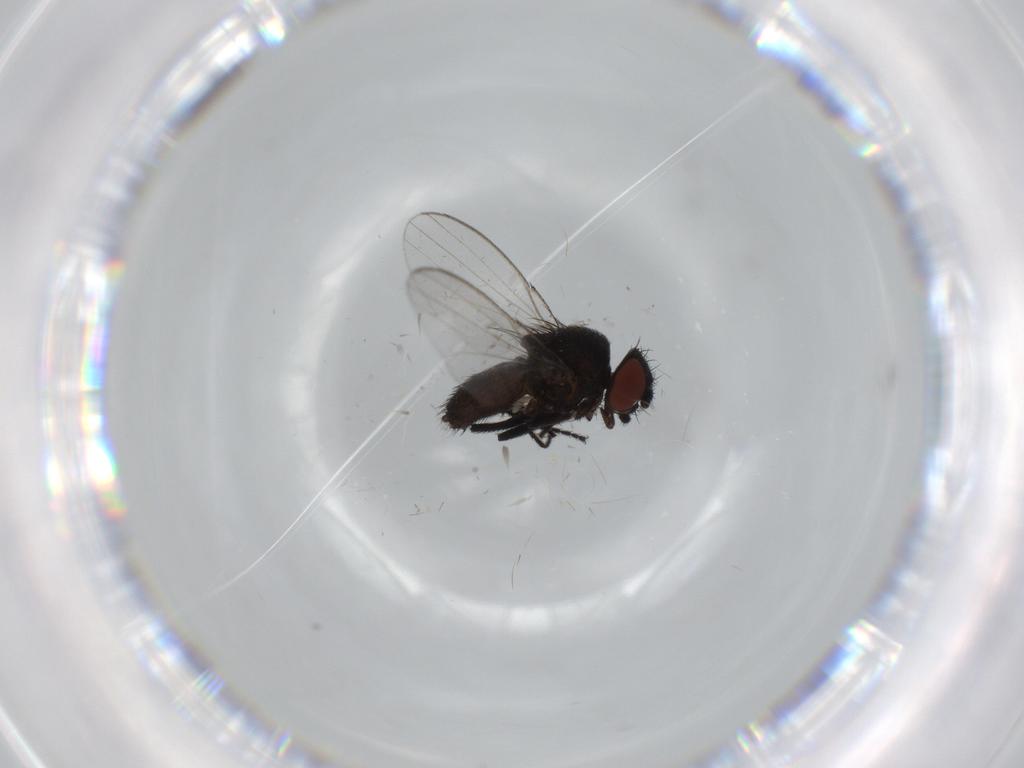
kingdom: Animalia
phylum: Arthropoda
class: Insecta
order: Diptera
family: Milichiidae
